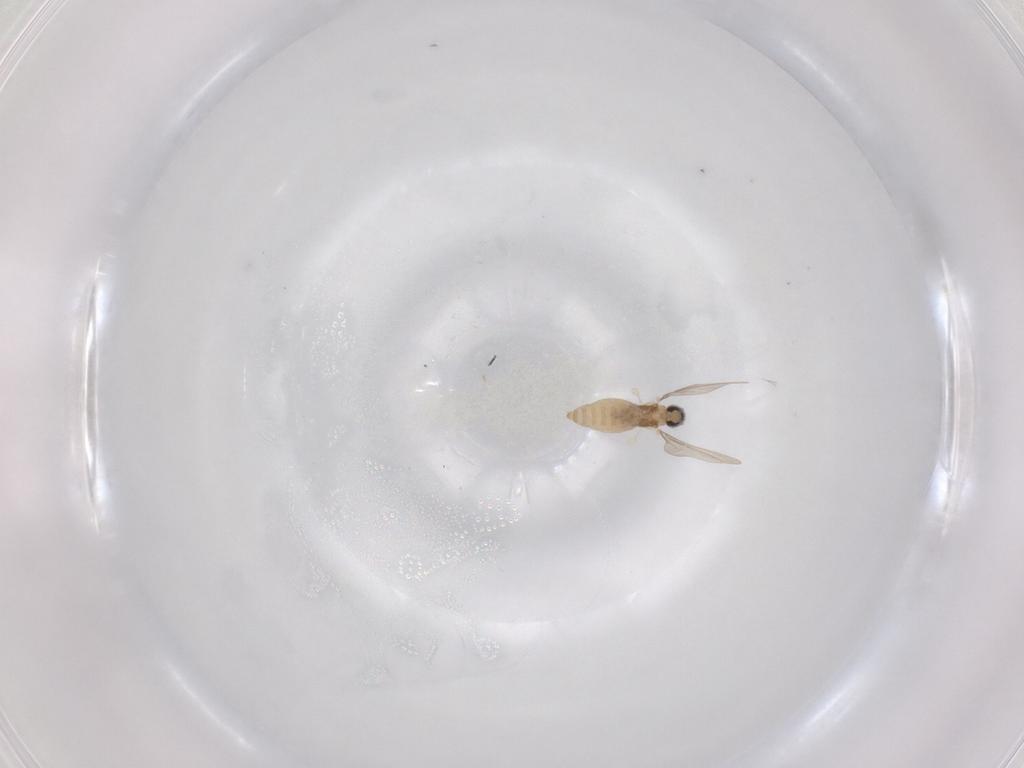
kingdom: Animalia
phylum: Arthropoda
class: Insecta
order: Diptera
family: Cecidomyiidae
